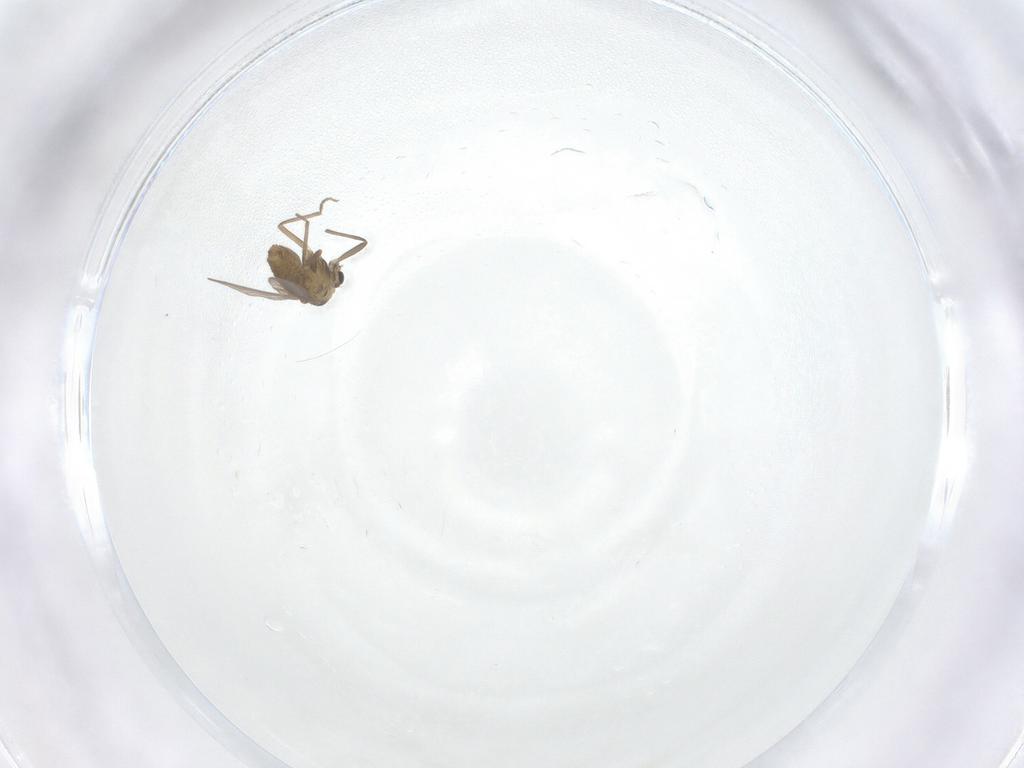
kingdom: Animalia
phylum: Arthropoda
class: Insecta
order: Diptera
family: Chironomidae
